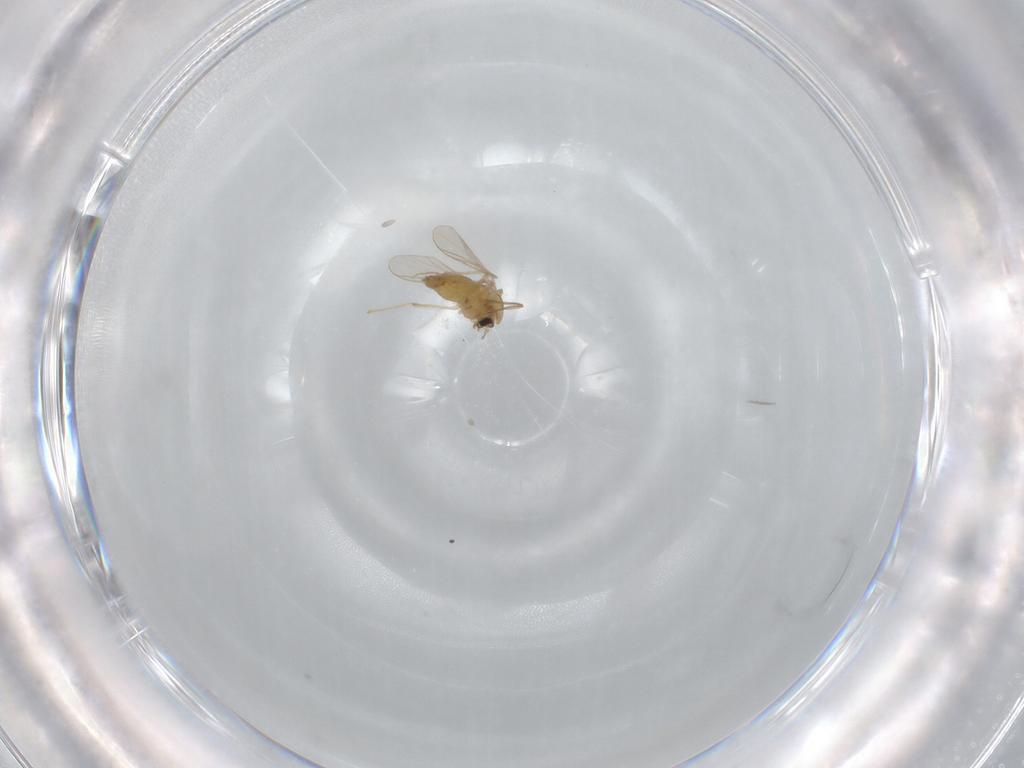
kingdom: Animalia
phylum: Arthropoda
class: Insecta
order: Diptera
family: Chironomidae
